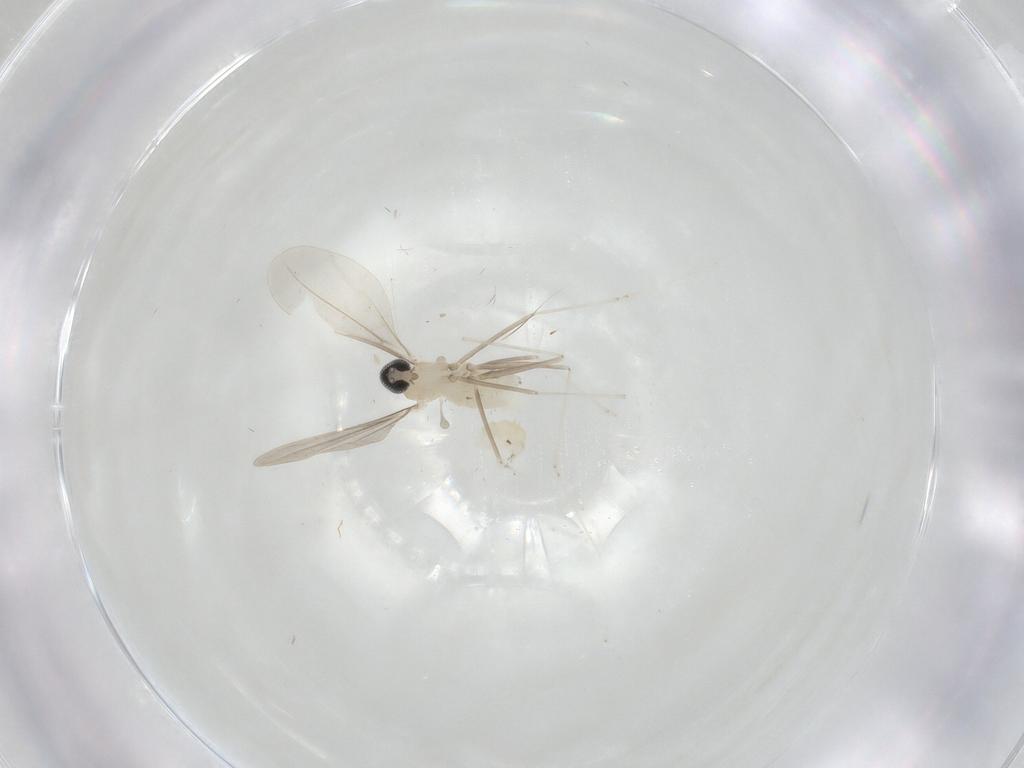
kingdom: Animalia
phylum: Arthropoda
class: Insecta
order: Diptera
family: Cecidomyiidae
